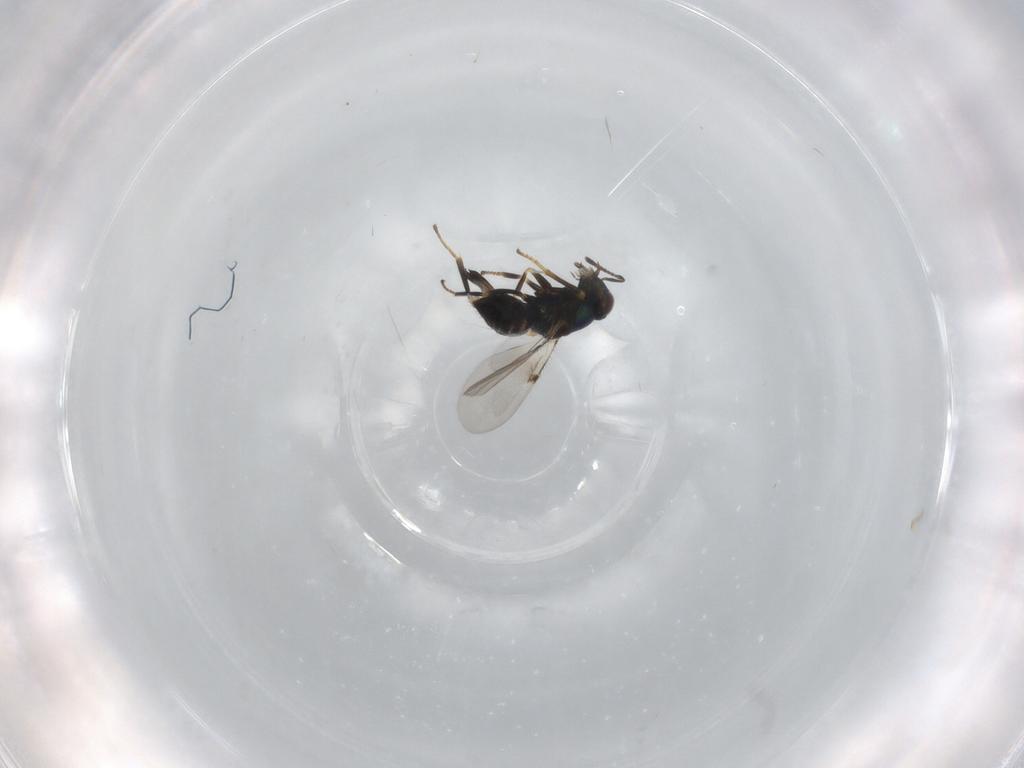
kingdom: Animalia
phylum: Arthropoda
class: Insecta
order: Hymenoptera
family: Encyrtidae
